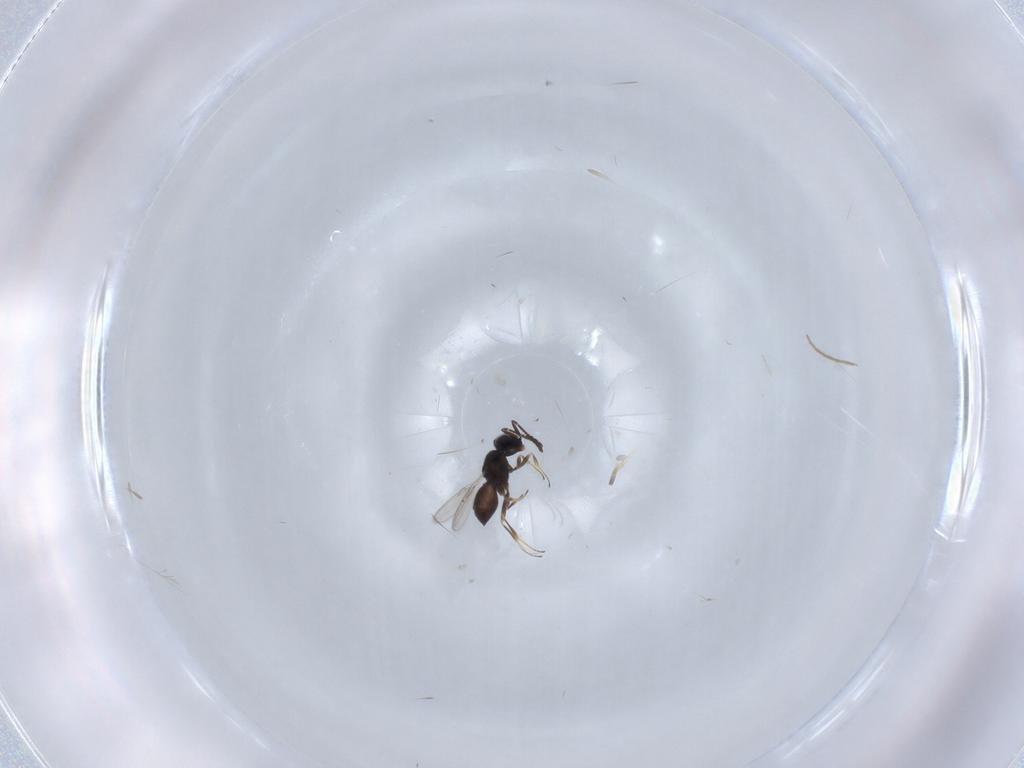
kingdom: Animalia
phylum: Arthropoda
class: Insecta
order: Hymenoptera
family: Scelionidae
